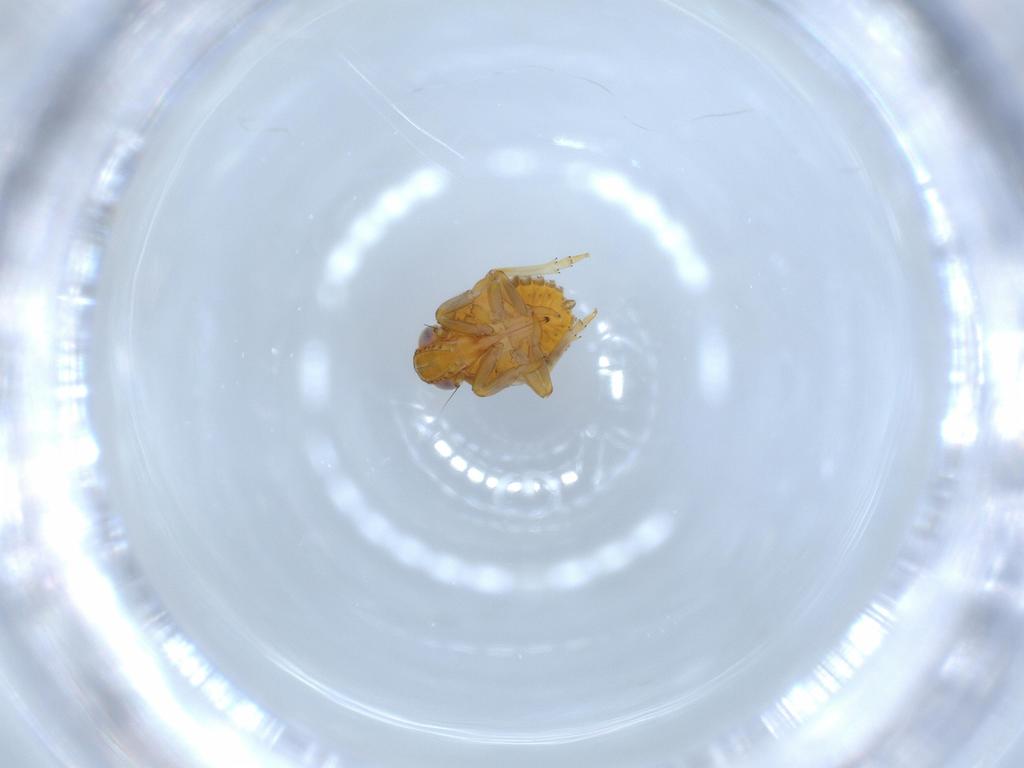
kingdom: Animalia
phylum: Arthropoda
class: Insecta
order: Hemiptera
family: Issidae
